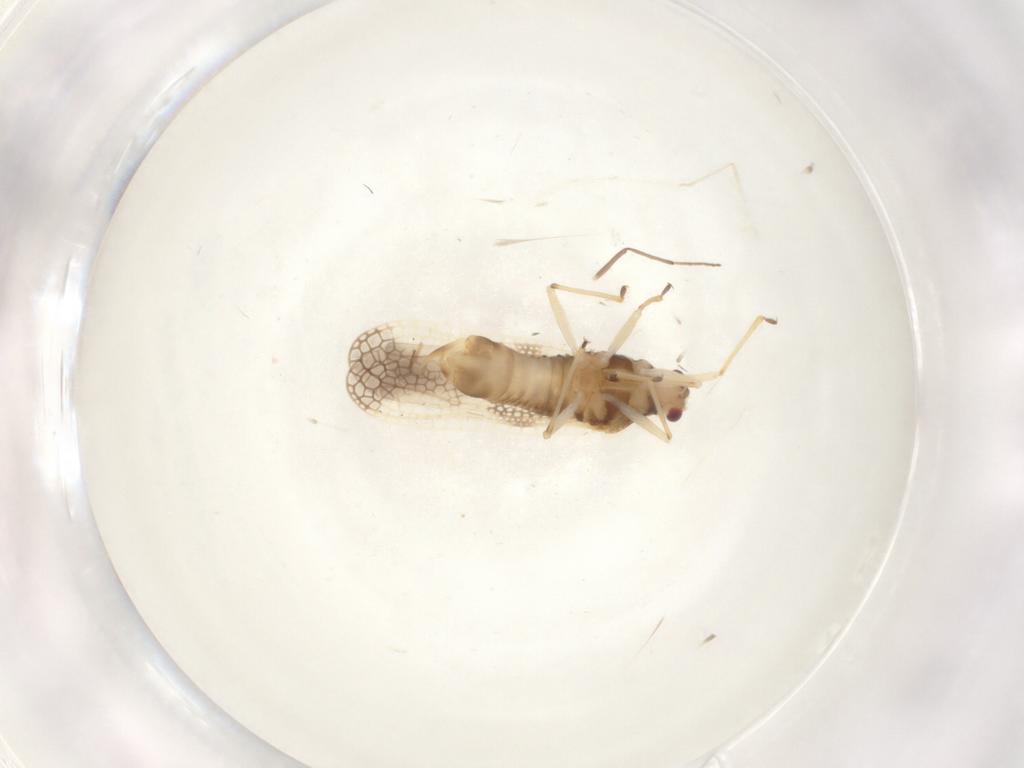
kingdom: Animalia
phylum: Arthropoda
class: Insecta
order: Hemiptera
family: Tingidae
